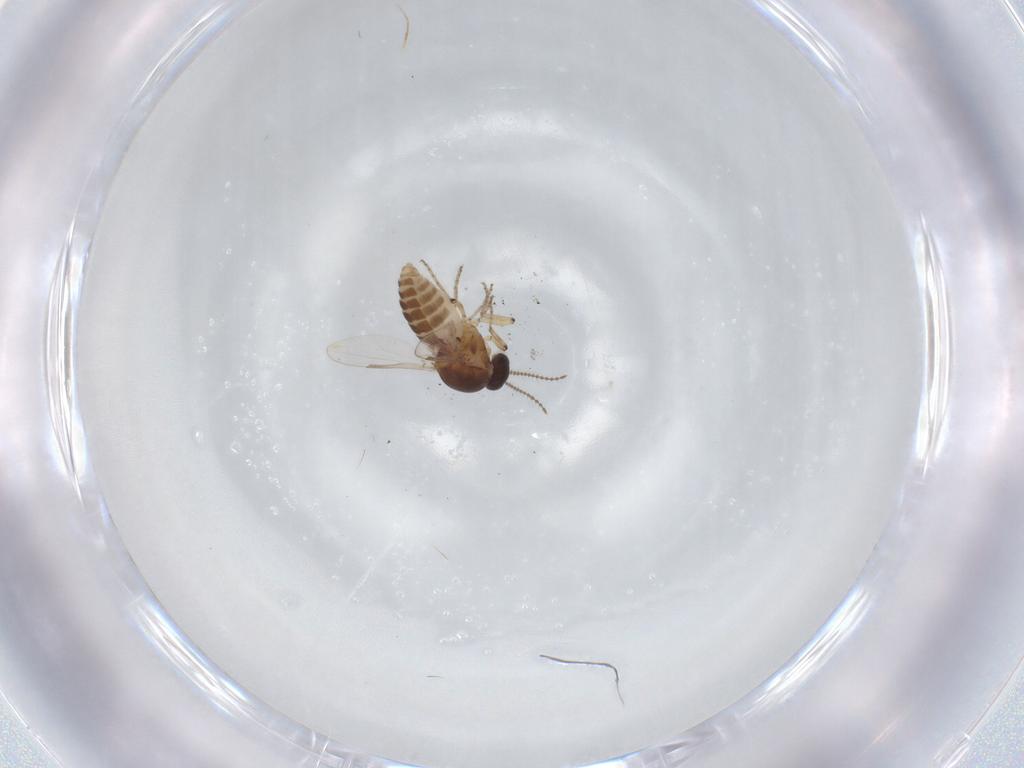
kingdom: Animalia
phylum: Arthropoda
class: Insecta
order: Diptera
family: Ceratopogonidae
